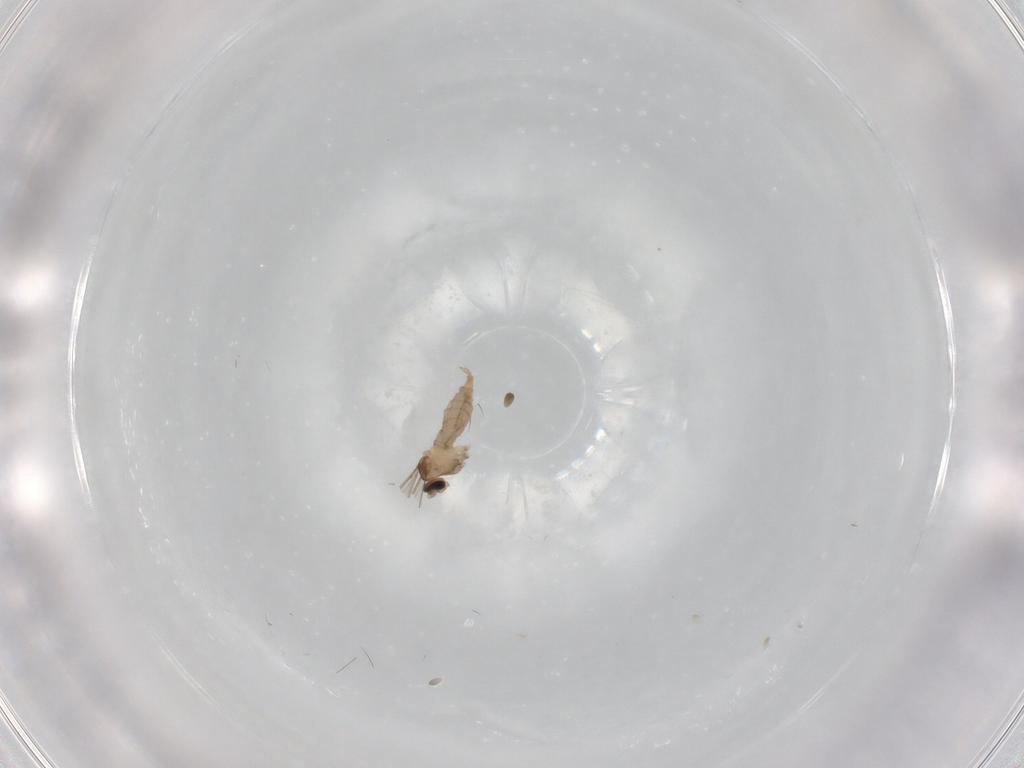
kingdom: Animalia
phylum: Arthropoda
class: Insecta
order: Diptera
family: Cecidomyiidae
